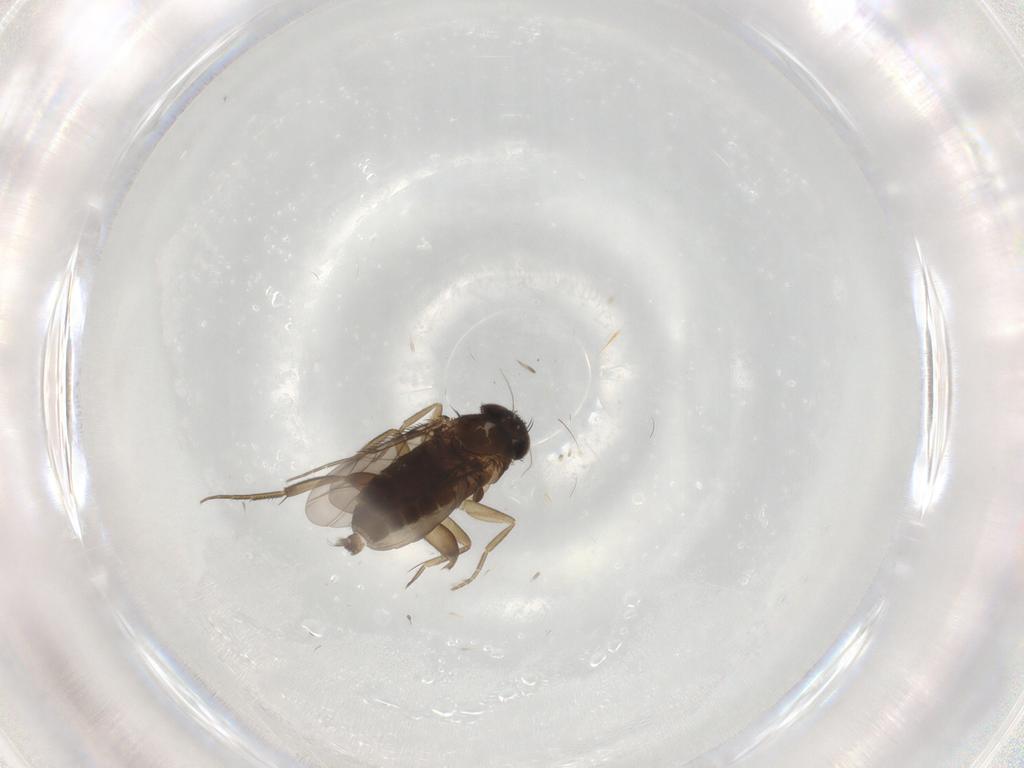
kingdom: Animalia
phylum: Arthropoda
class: Insecta
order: Diptera
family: Phoridae
